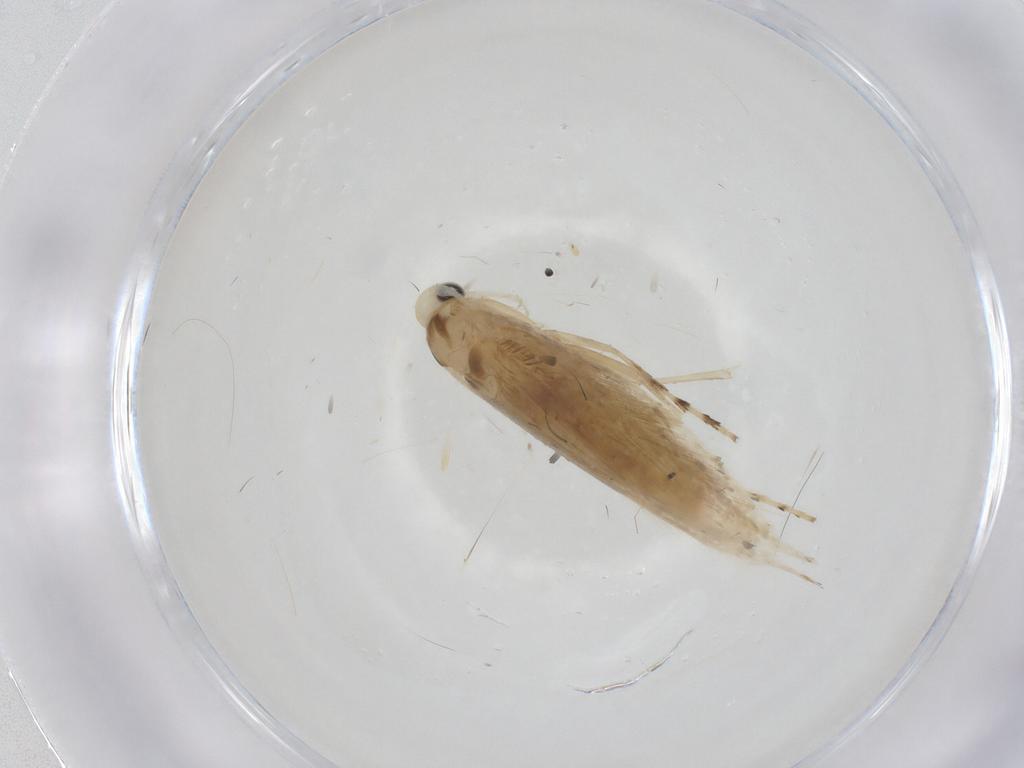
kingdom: Animalia
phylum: Arthropoda
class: Insecta
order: Lepidoptera
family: Gracillariidae
